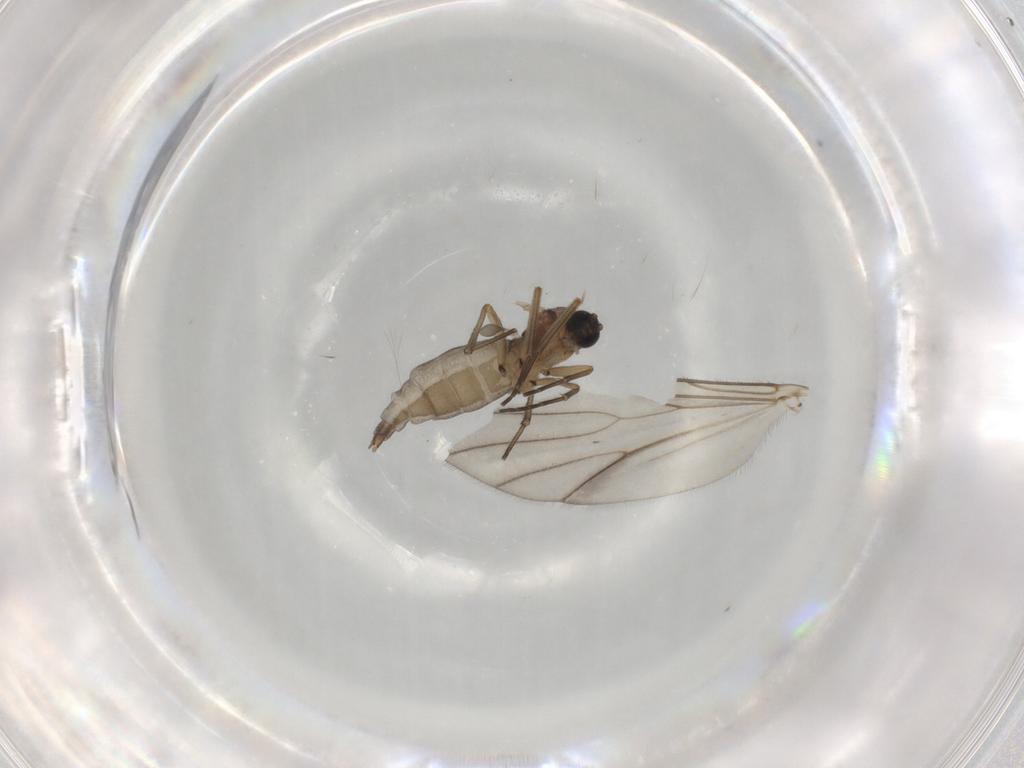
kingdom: Animalia
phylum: Arthropoda
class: Insecta
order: Diptera
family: Sciaridae
